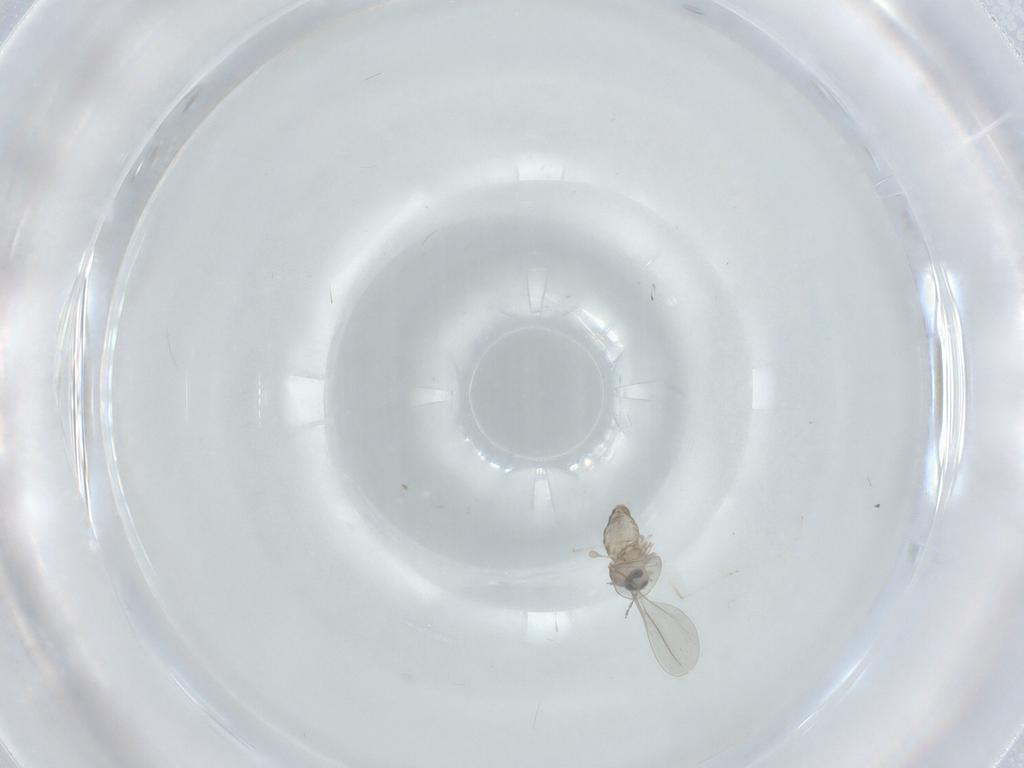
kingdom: Animalia
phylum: Arthropoda
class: Insecta
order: Diptera
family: Cecidomyiidae
